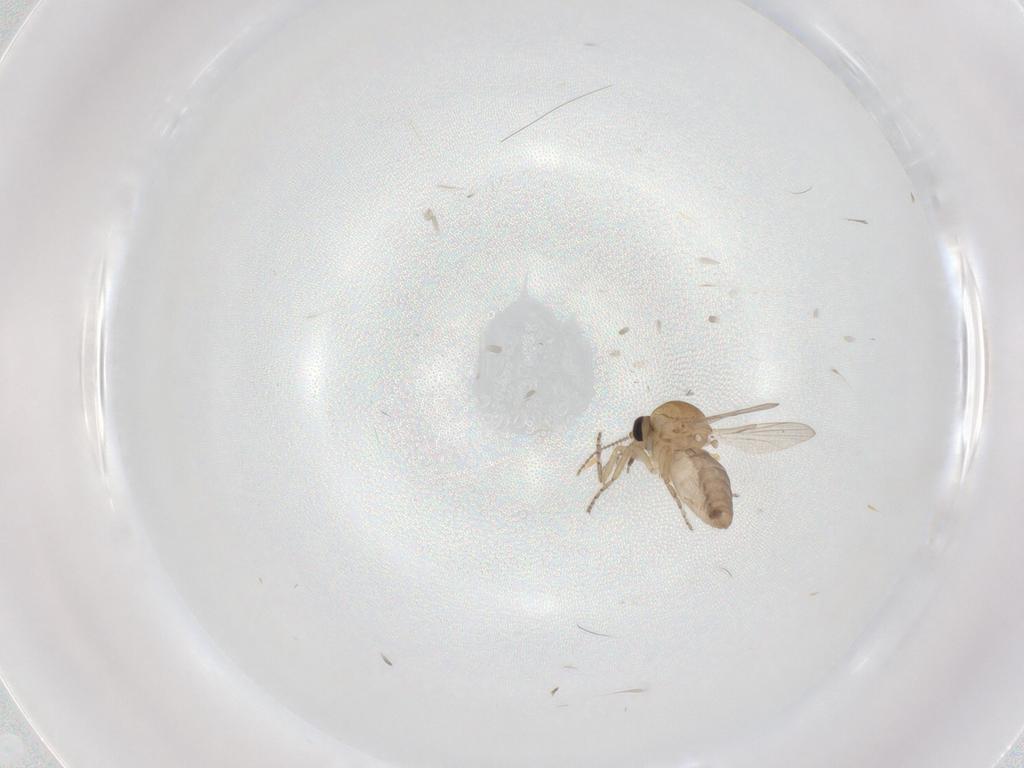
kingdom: Animalia
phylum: Arthropoda
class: Insecta
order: Diptera
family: Ceratopogonidae
